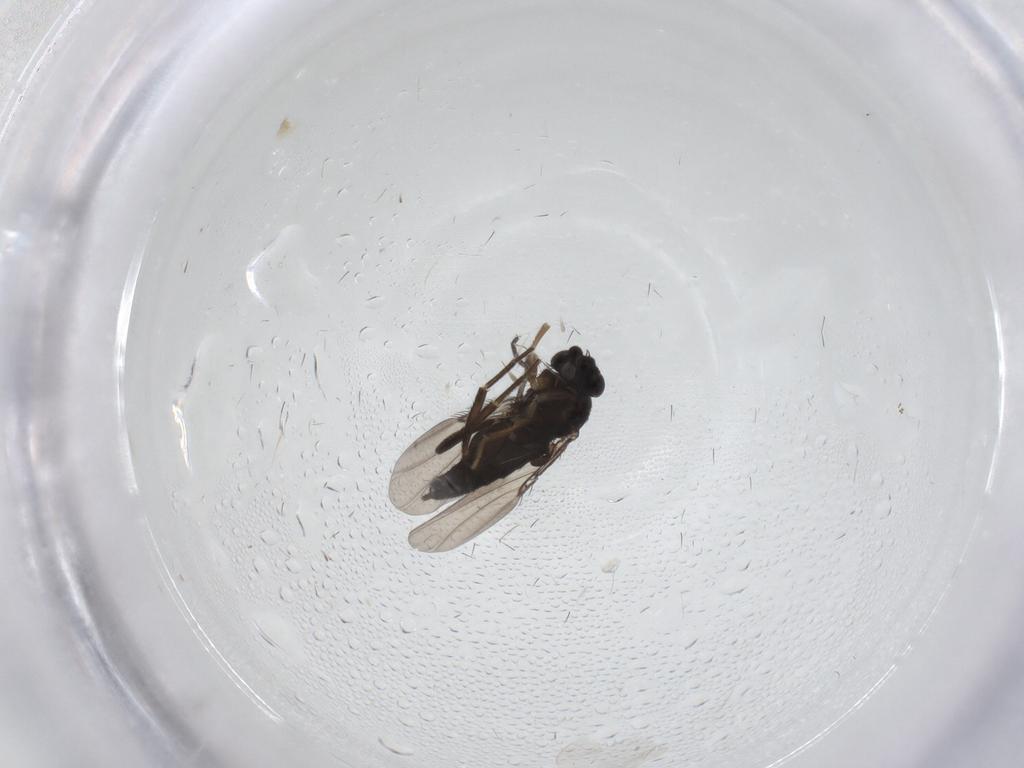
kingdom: Animalia
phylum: Arthropoda
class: Insecta
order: Diptera
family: Phoridae
